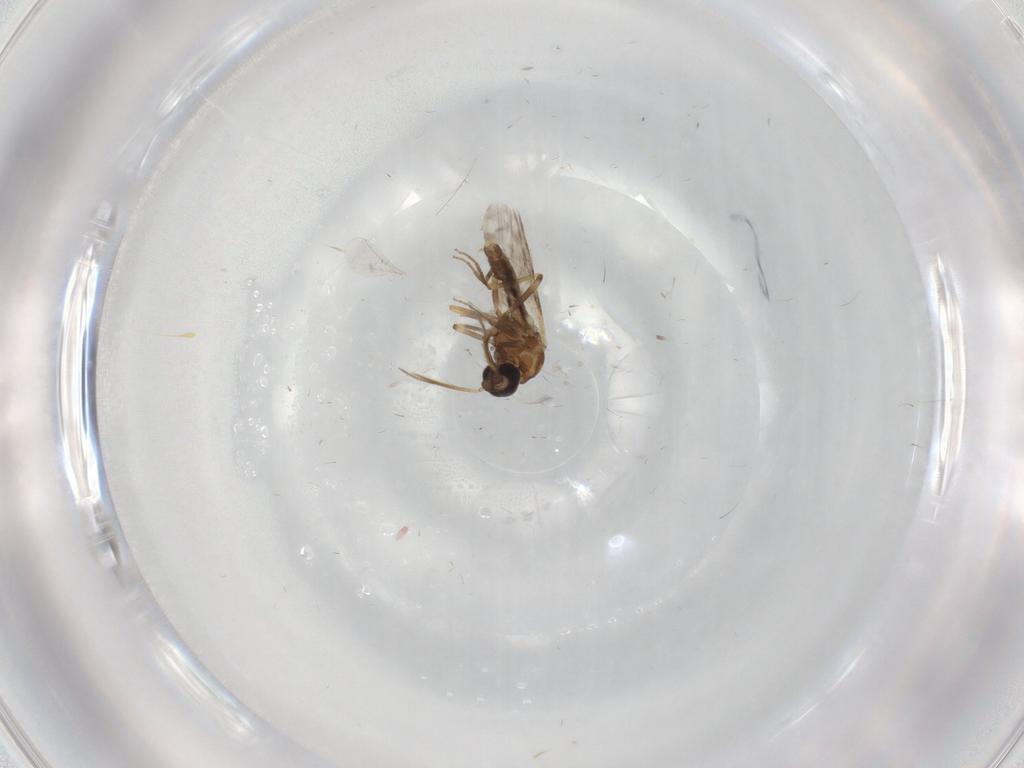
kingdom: Animalia
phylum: Arthropoda
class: Insecta
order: Diptera
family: Ceratopogonidae
